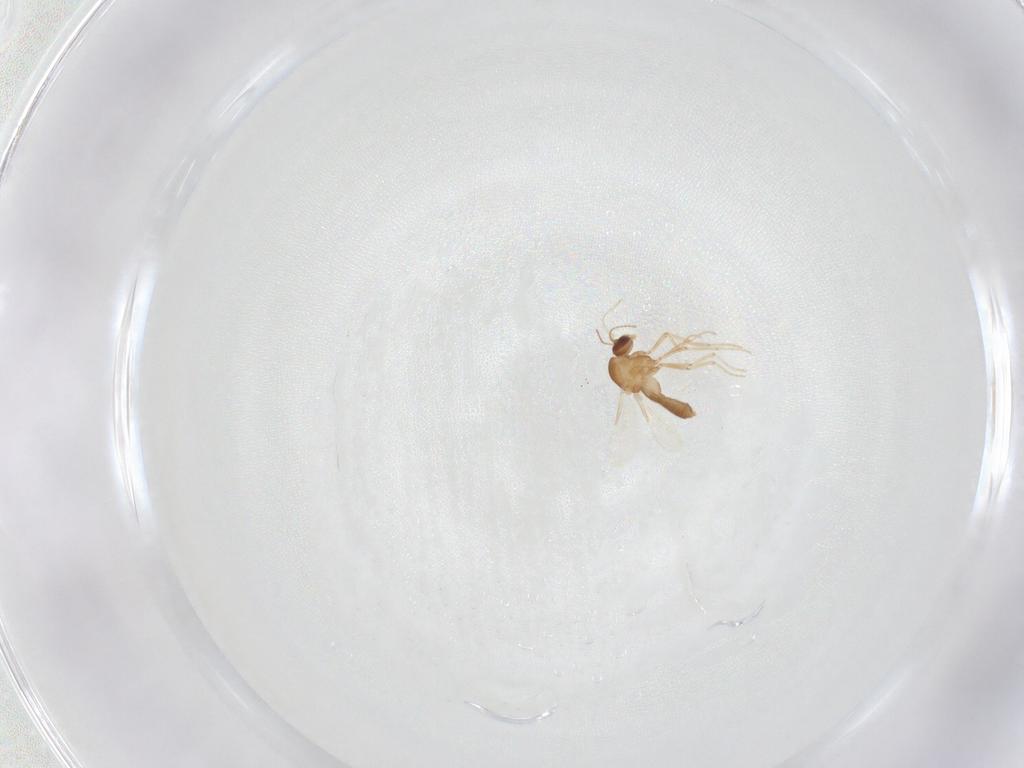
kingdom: Animalia
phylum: Arthropoda
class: Insecta
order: Diptera
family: Ceratopogonidae
